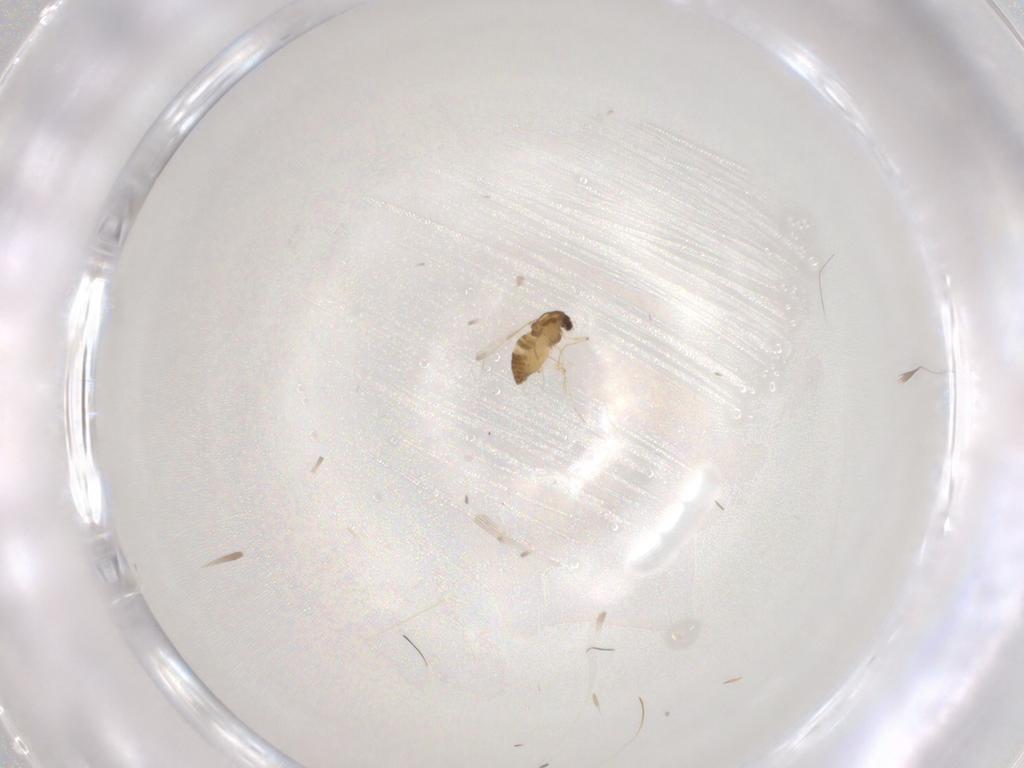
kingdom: Animalia
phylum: Arthropoda
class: Insecta
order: Diptera
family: Chironomidae
